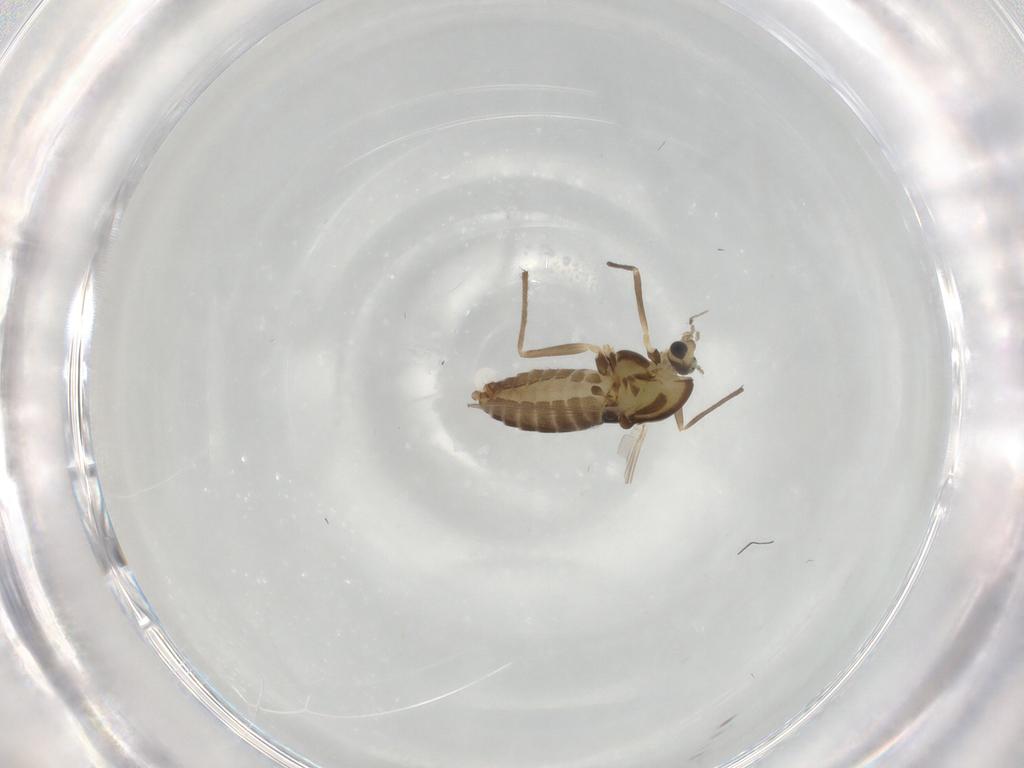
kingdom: Animalia
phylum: Arthropoda
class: Insecta
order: Diptera
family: Chironomidae
